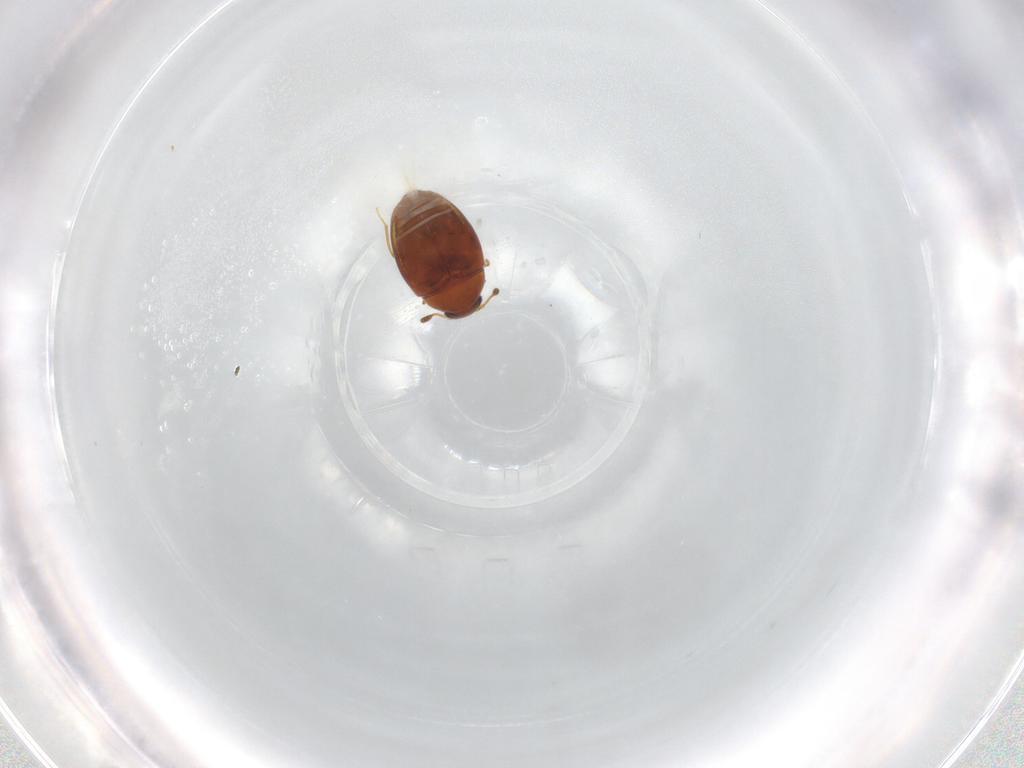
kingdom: Animalia
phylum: Arthropoda
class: Insecta
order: Coleoptera
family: Cryptophagidae
